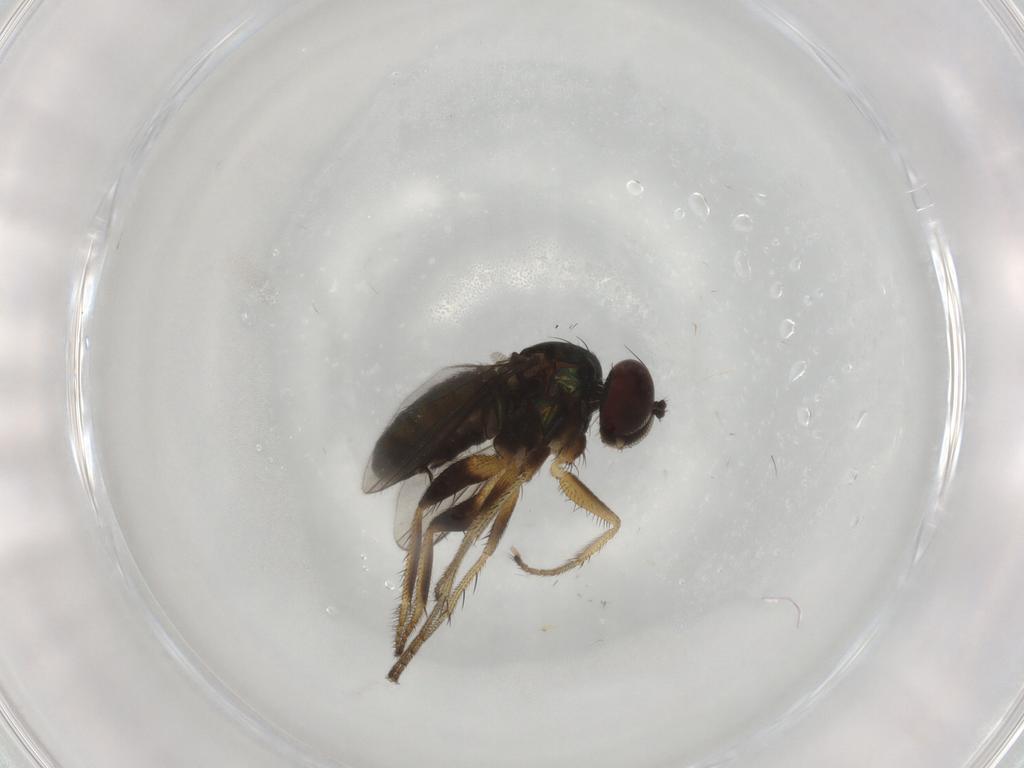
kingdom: Animalia
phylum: Arthropoda
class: Insecta
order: Diptera
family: Dolichopodidae
